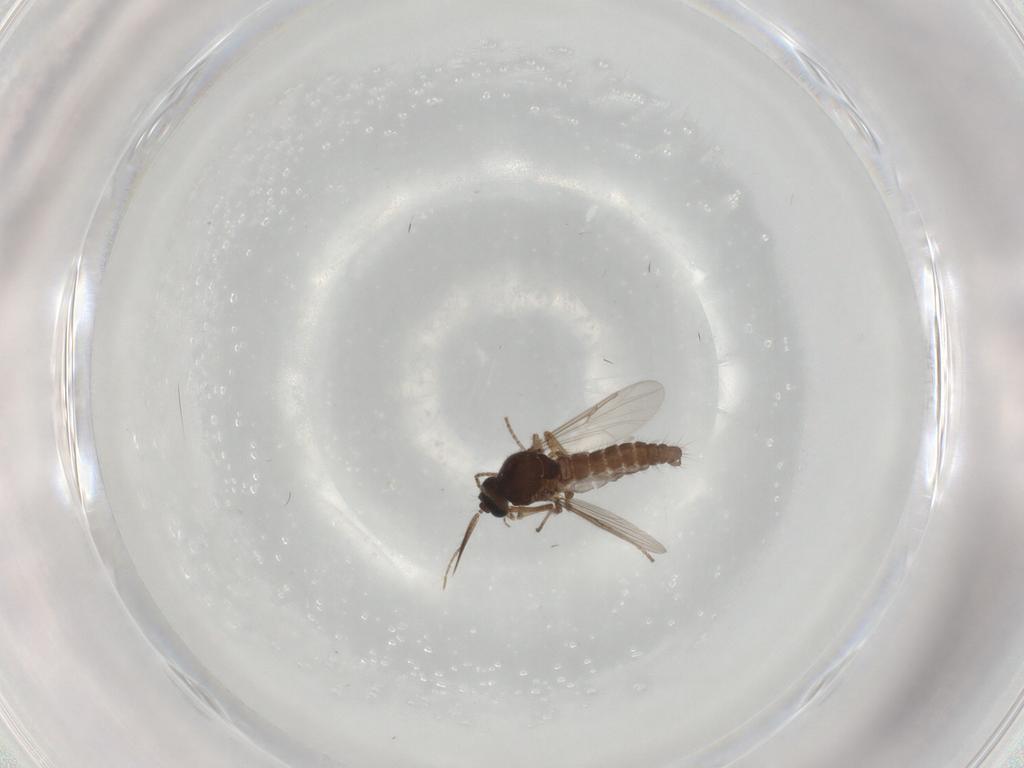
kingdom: Animalia
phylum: Arthropoda
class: Insecta
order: Diptera
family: Ceratopogonidae
